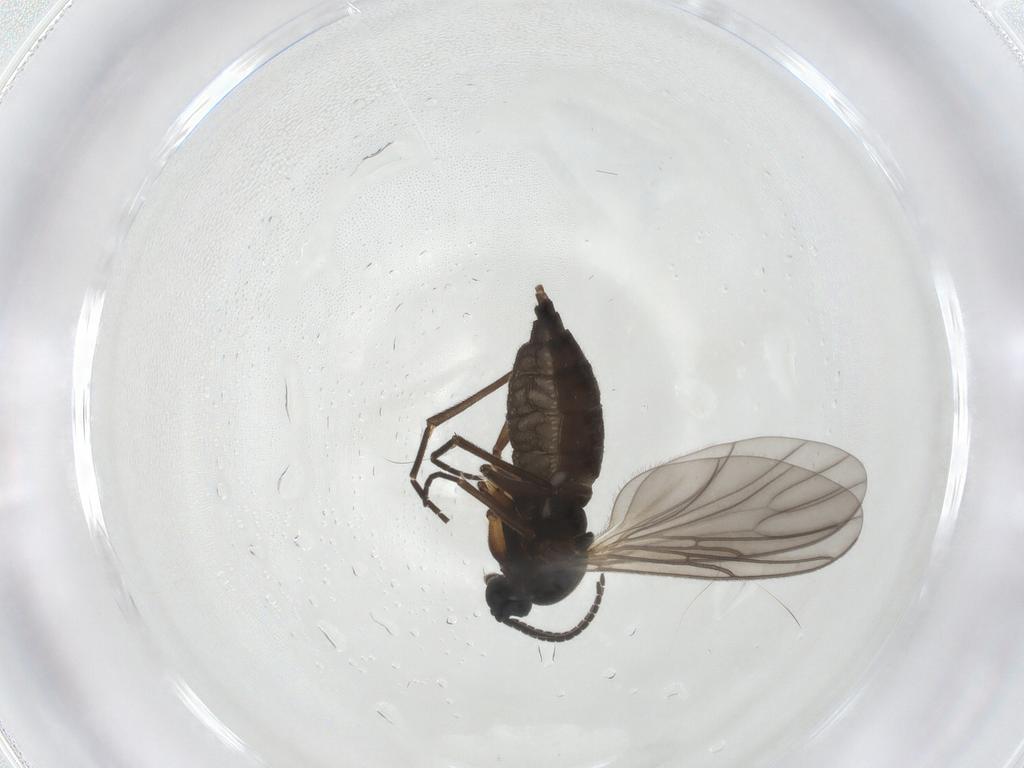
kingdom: Animalia
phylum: Arthropoda
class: Insecta
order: Diptera
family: Sciaridae
